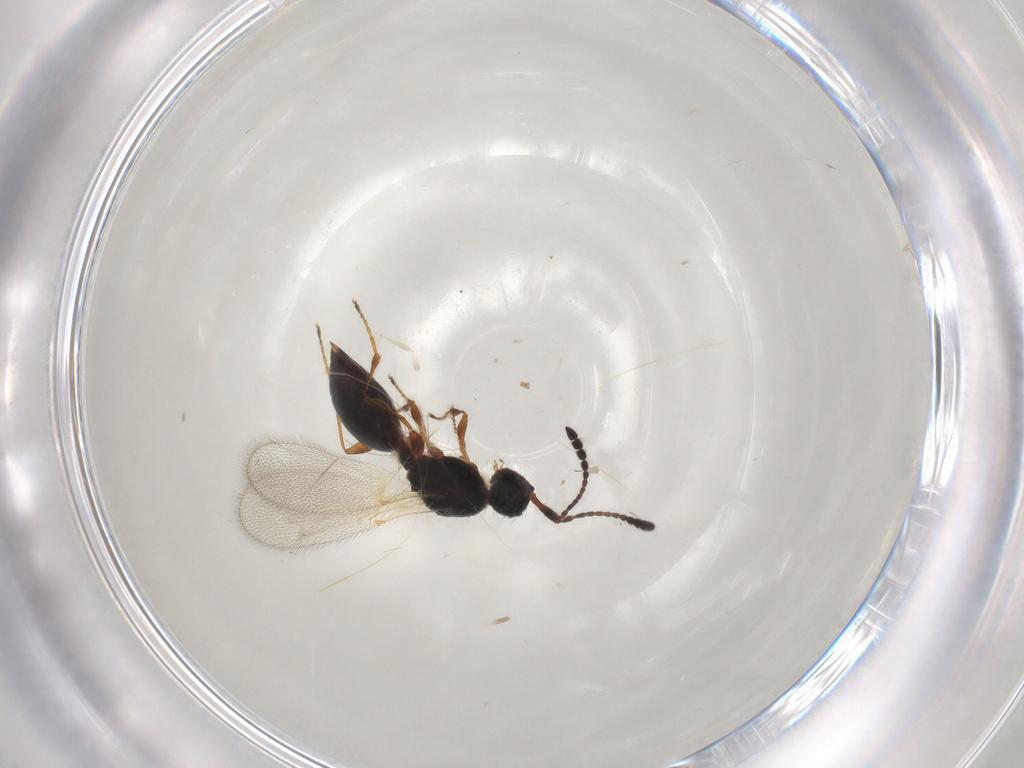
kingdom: Animalia
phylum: Arthropoda
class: Insecta
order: Hymenoptera
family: Diapriidae
